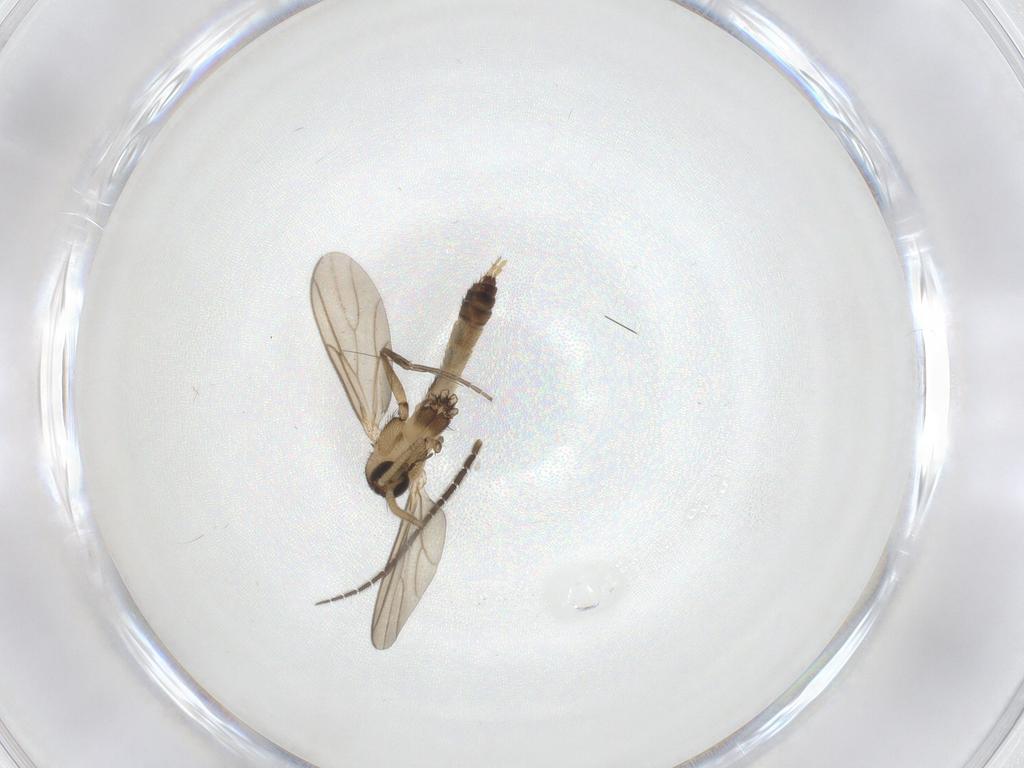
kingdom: Animalia
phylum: Arthropoda
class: Insecta
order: Diptera
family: Sciaridae
